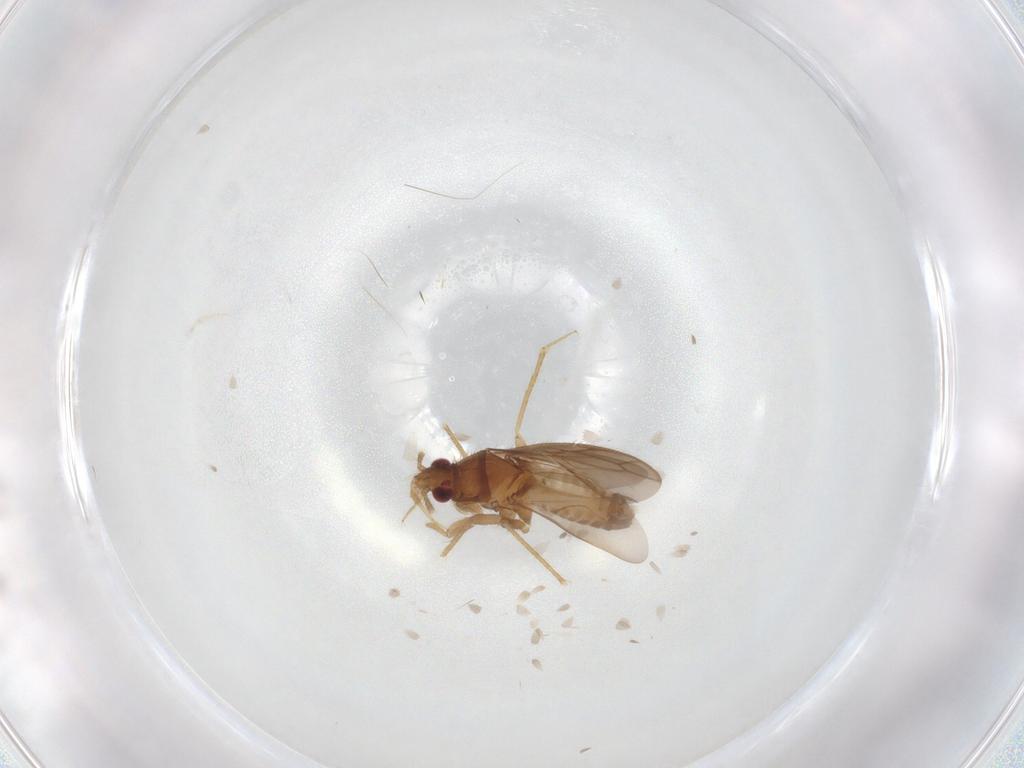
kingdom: Animalia
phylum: Arthropoda
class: Insecta
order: Hemiptera
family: Ceratocombidae
